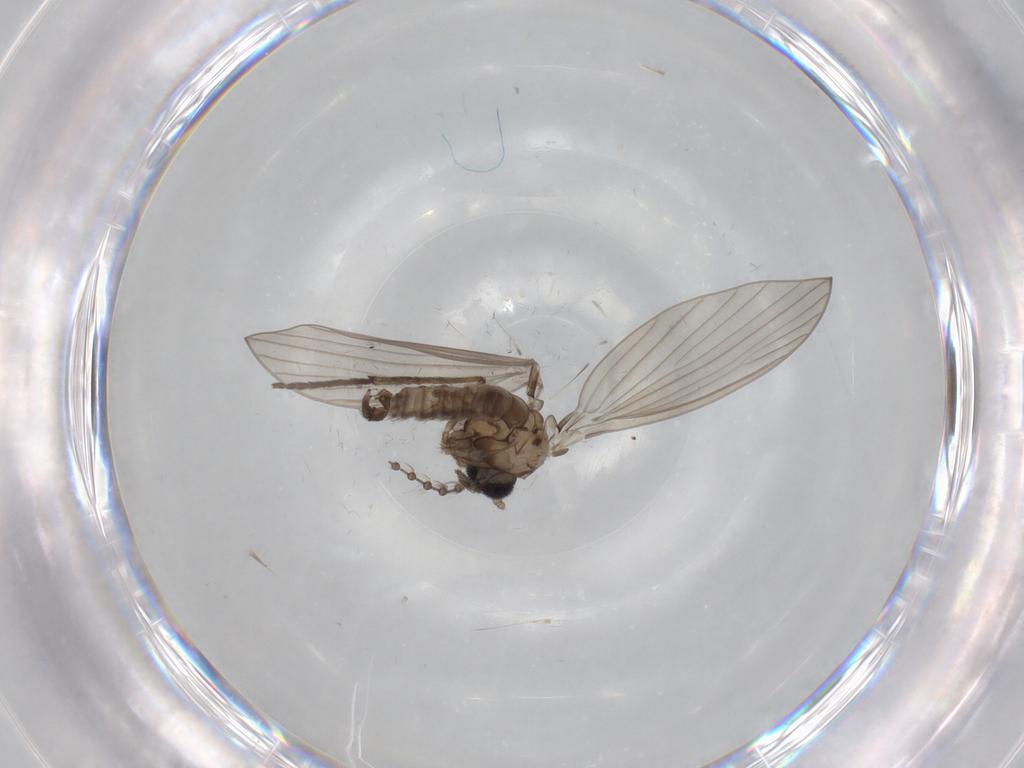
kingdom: Animalia
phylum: Arthropoda
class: Insecta
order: Diptera
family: Psychodidae
